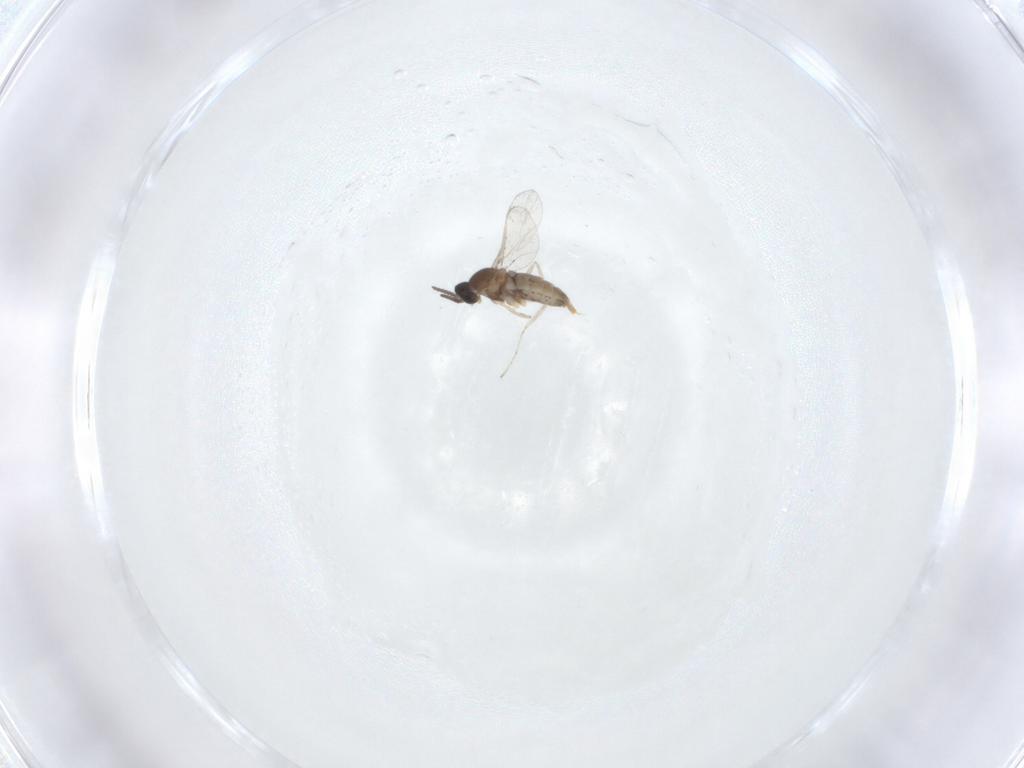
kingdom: Animalia
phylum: Arthropoda
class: Insecta
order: Diptera
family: Cecidomyiidae
